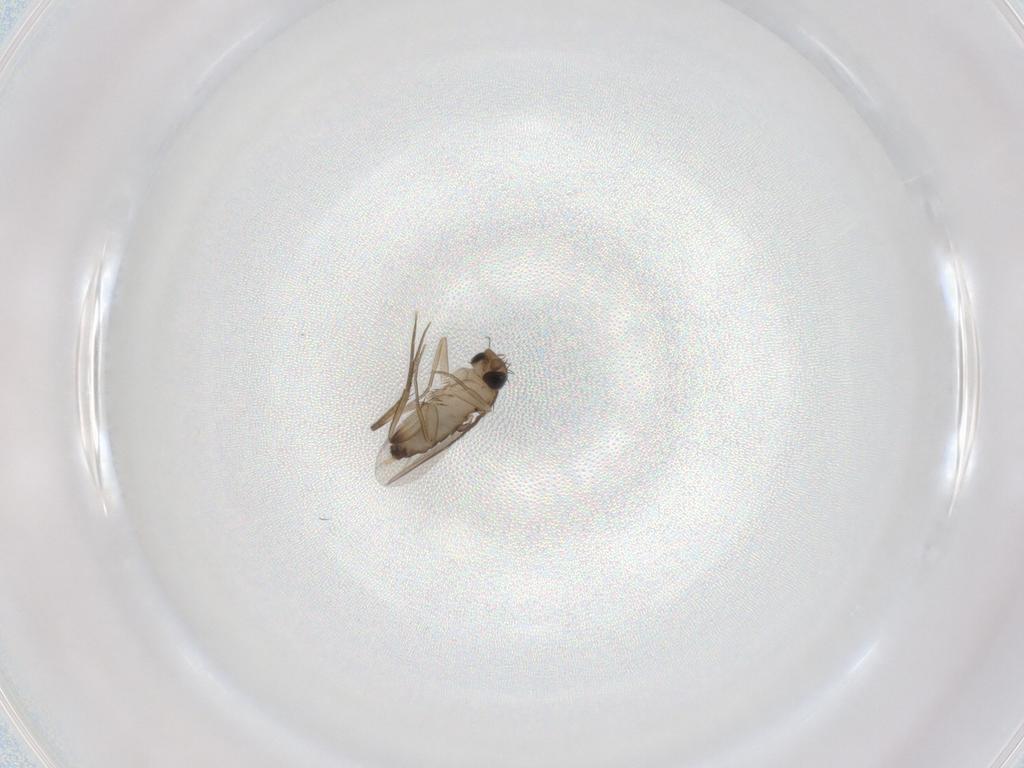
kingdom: Animalia
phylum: Arthropoda
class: Insecta
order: Diptera
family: Phoridae
